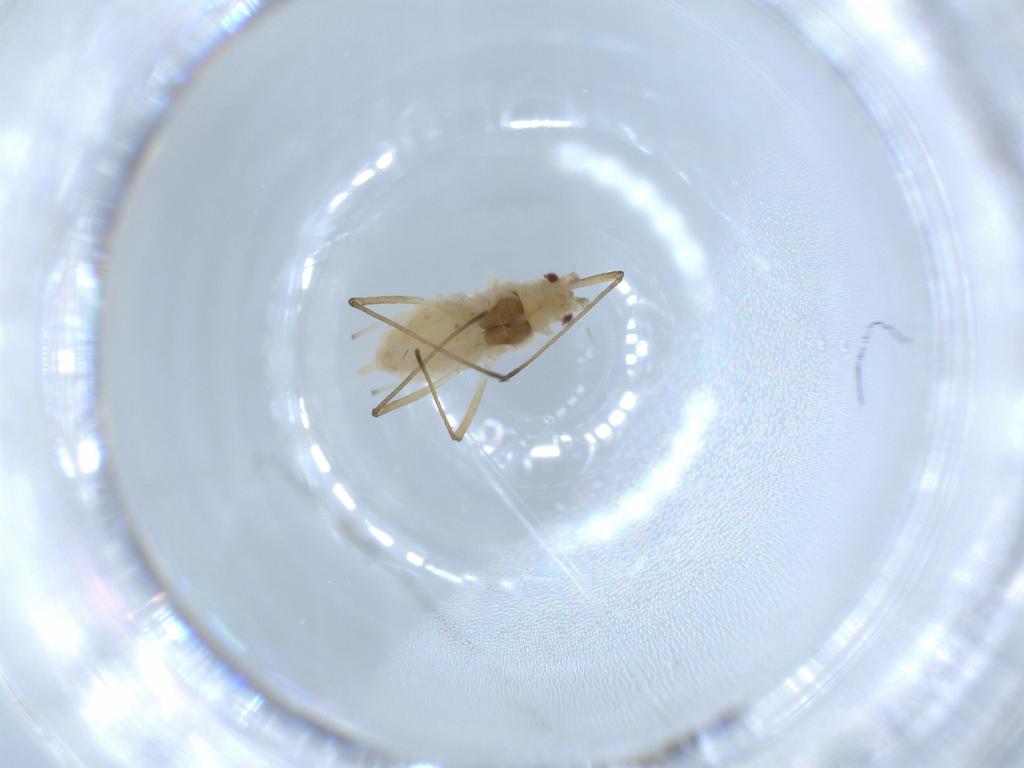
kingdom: Animalia
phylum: Arthropoda
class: Insecta
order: Hemiptera
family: Aphididae
